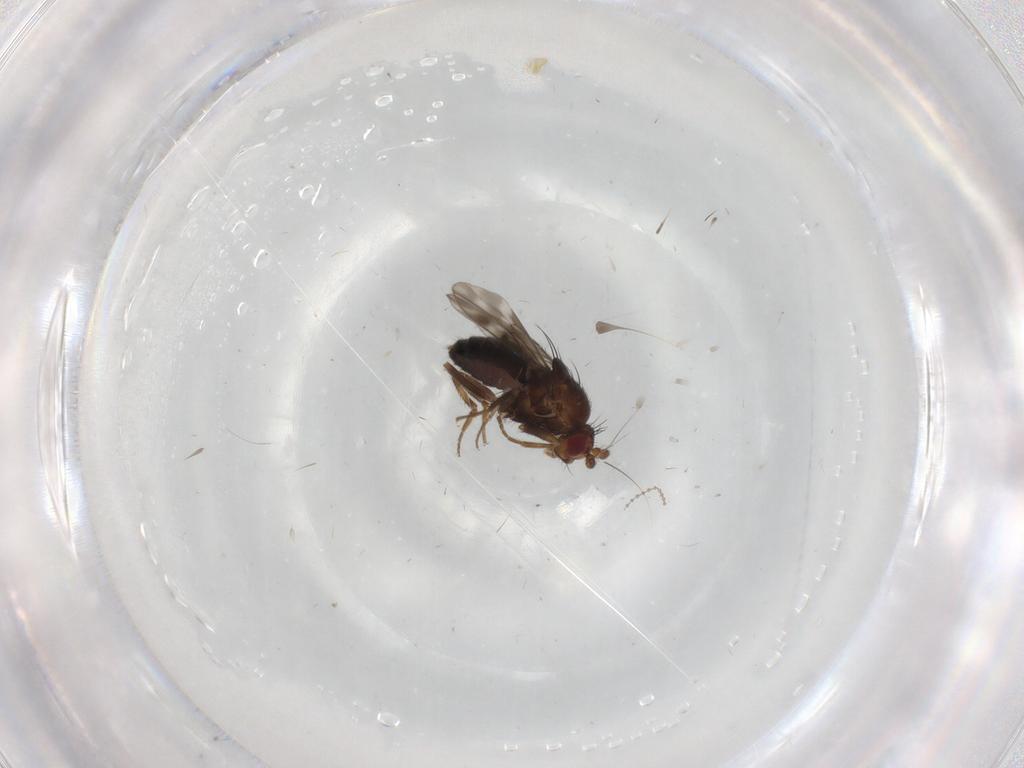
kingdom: Animalia
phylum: Arthropoda
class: Insecta
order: Diptera
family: Sphaeroceridae
